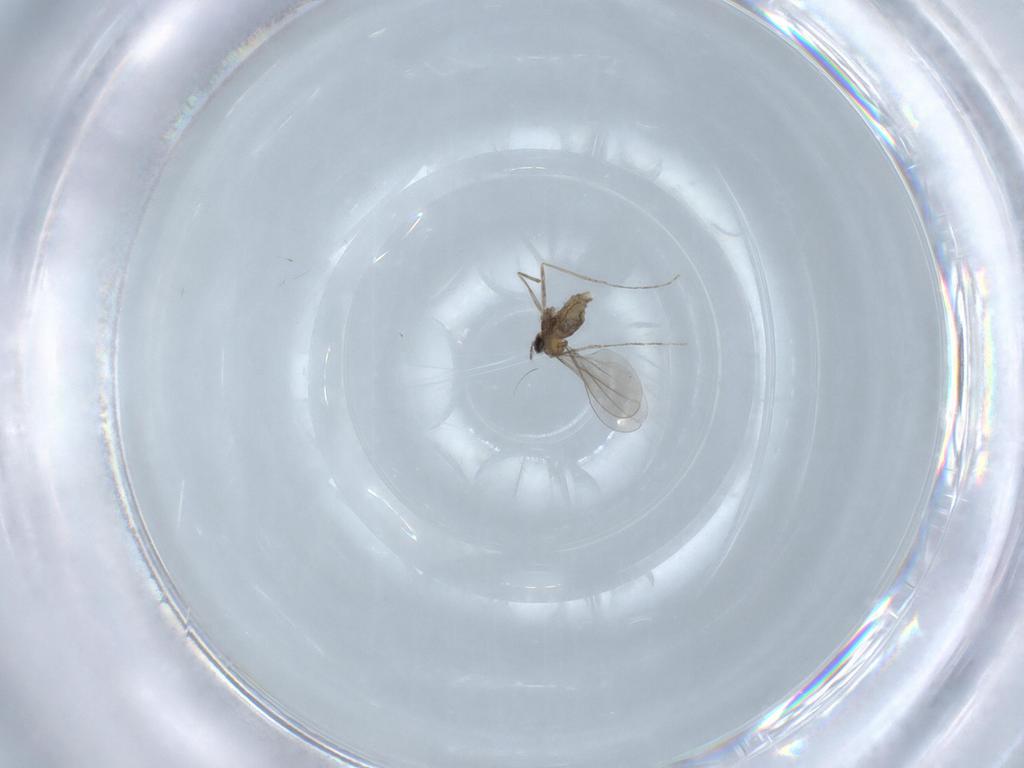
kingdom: Animalia
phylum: Arthropoda
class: Insecta
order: Diptera
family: Cecidomyiidae
